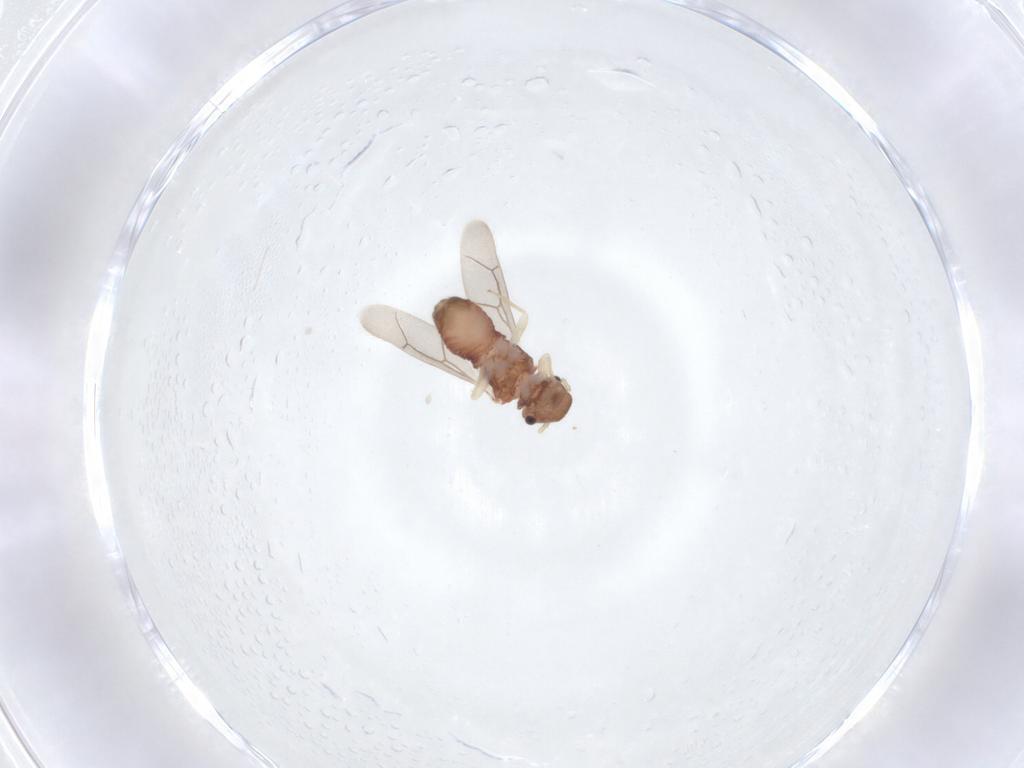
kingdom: Animalia
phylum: Arthropoda
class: Insecta
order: Psocodea
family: Archipsocidae
